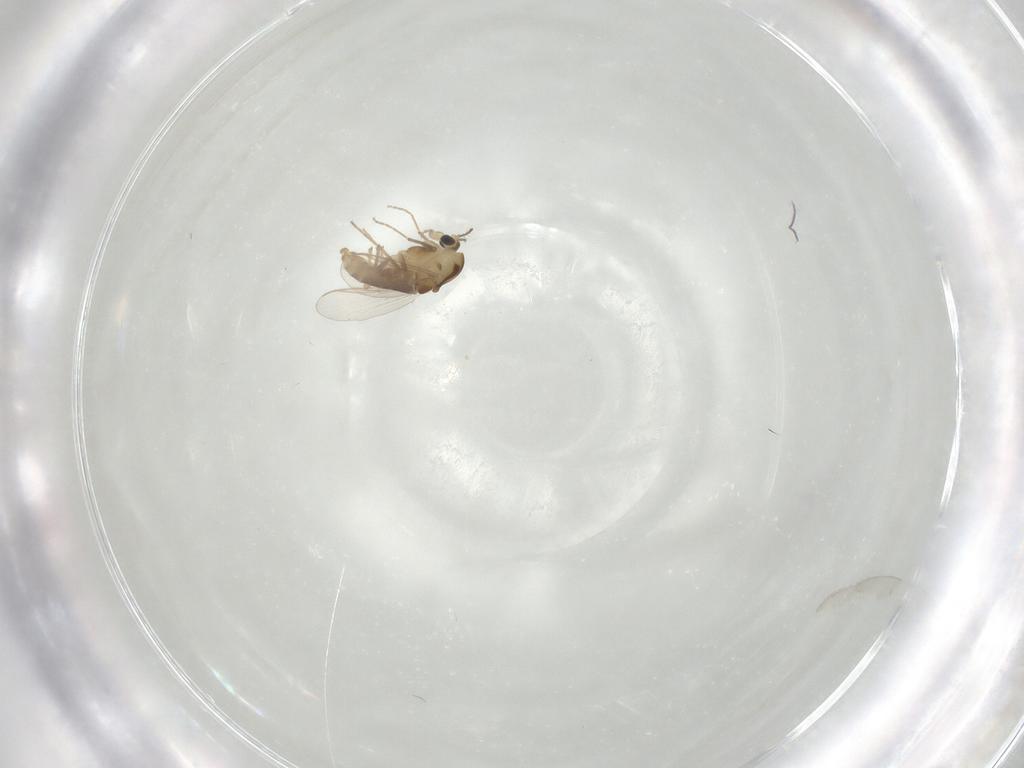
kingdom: Animalia
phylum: Arthropoda
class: Insecta
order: Diptera
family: Chironomidae
